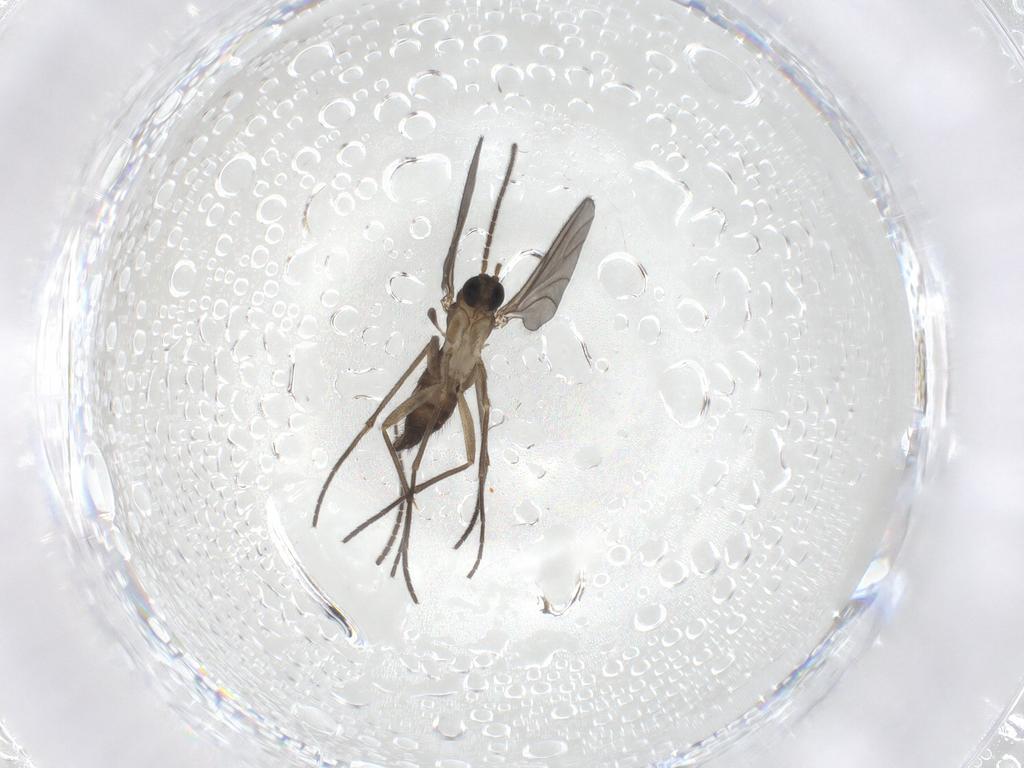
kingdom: Animalia
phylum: Arthropoda
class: Insecta
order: Diptera
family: Sciaridae
